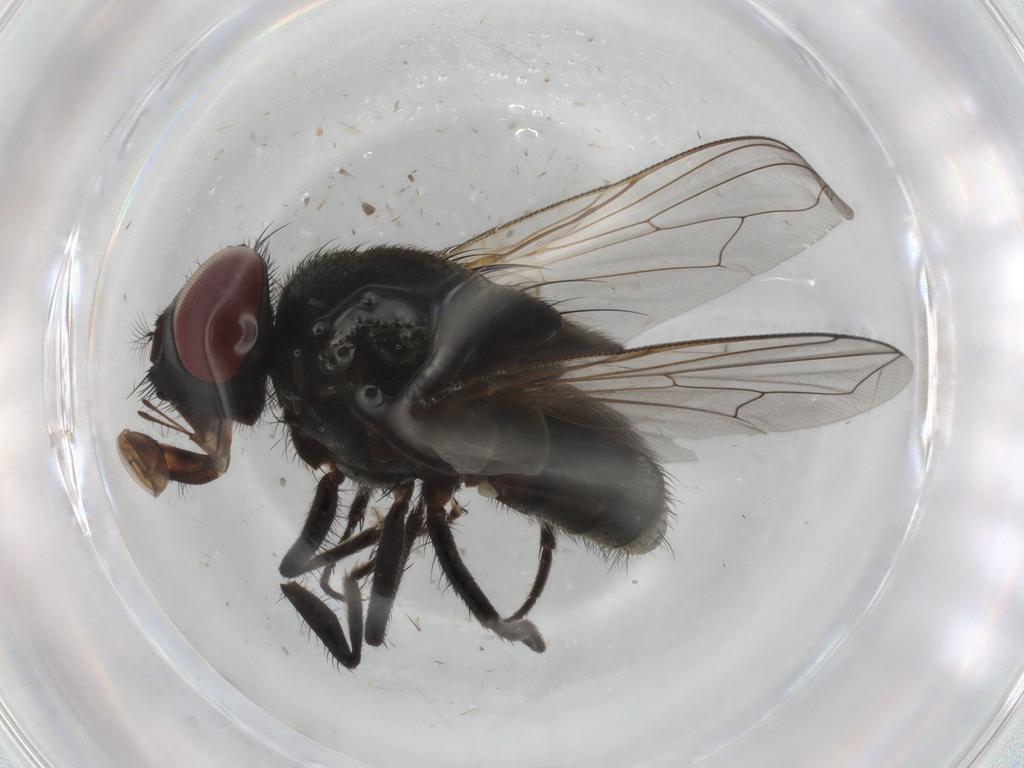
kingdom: Animalia
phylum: Arthropoda
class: Insecta
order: Diptera
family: Muscidae
